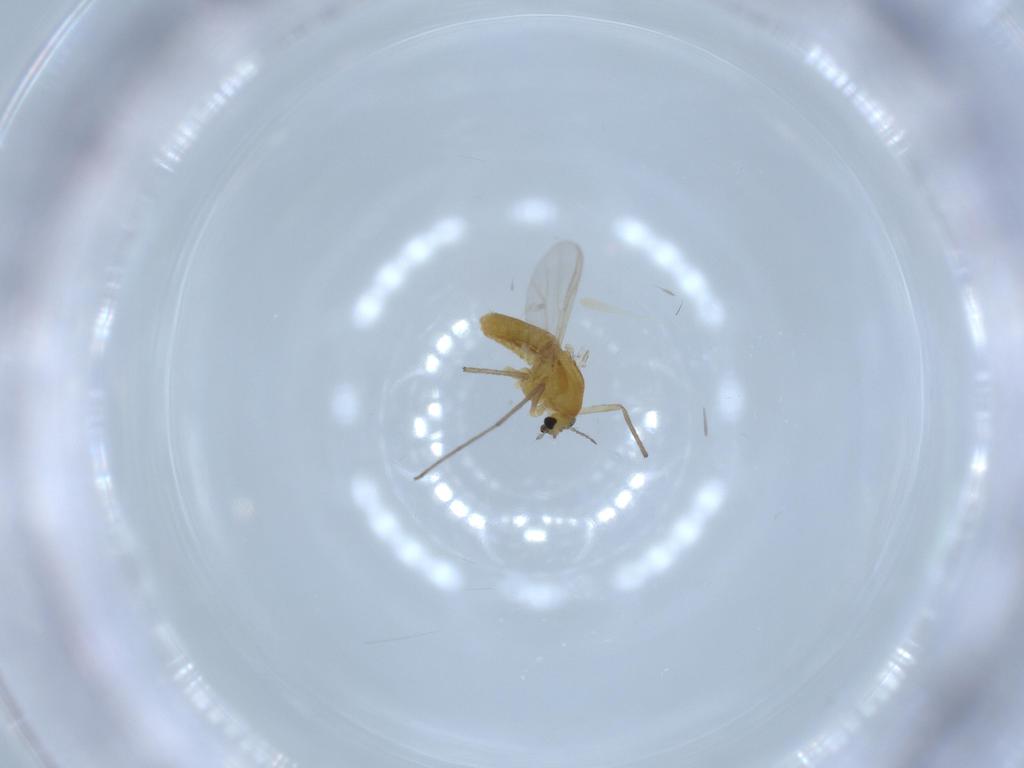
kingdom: Animalia
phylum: Arthropoda
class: Insecta
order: Diptera
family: Chironomidae
